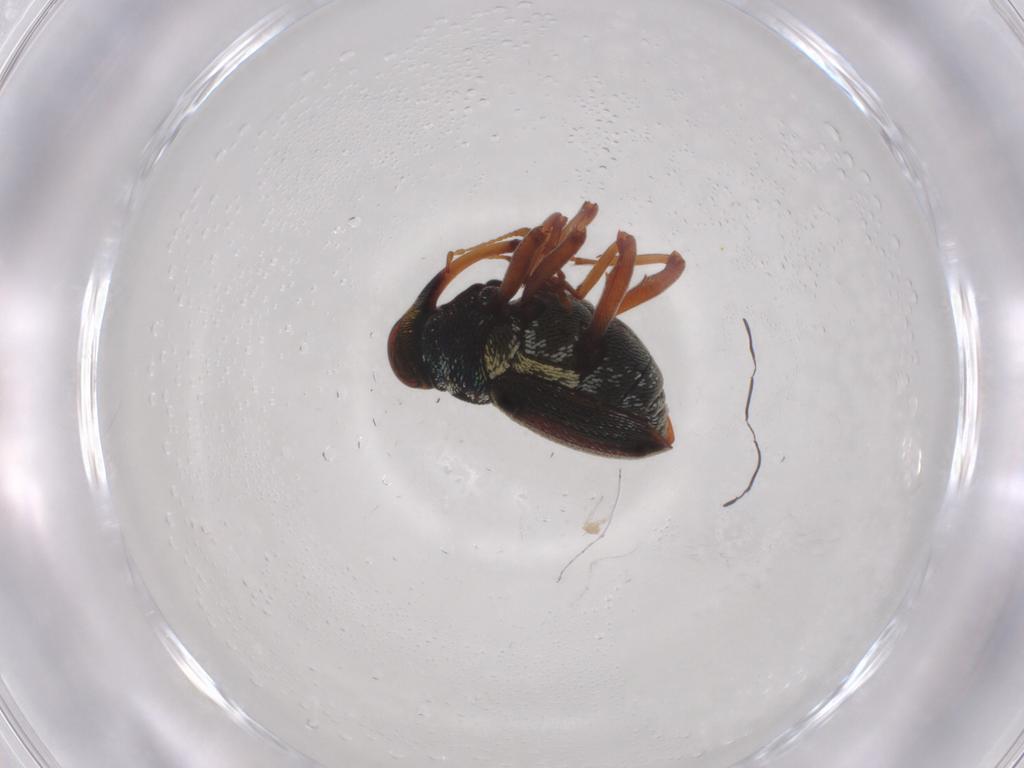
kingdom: Animalia
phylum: Arthropoda
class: Insecta
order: Coleoptera
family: Curculionidae
